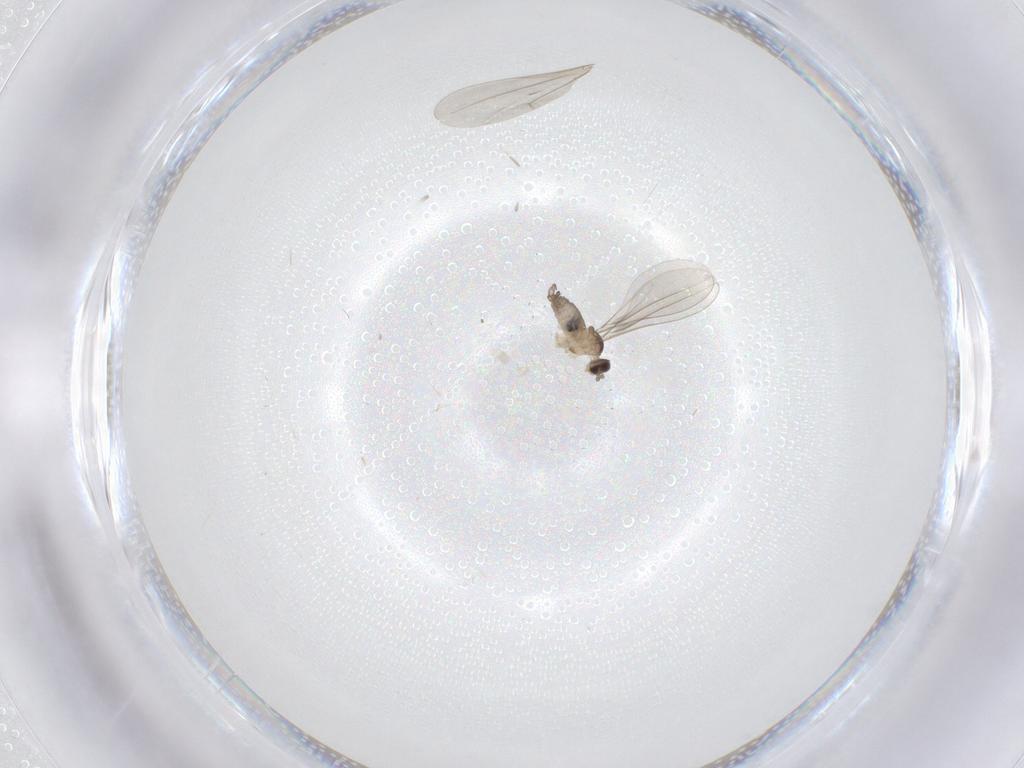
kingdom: Animalia
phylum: Arthropoda
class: Insecta
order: Diptera
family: Cecidomyiidae
